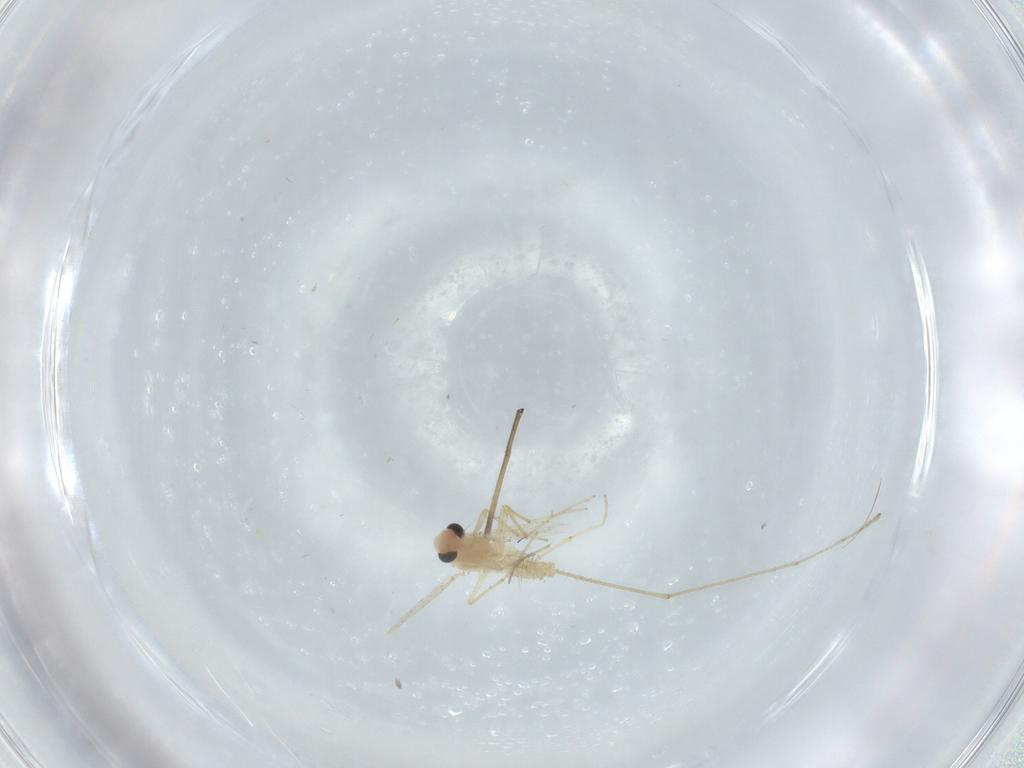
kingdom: Animalia
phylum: Arthropoda
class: Insecta
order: Diptera
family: Chironomidae
